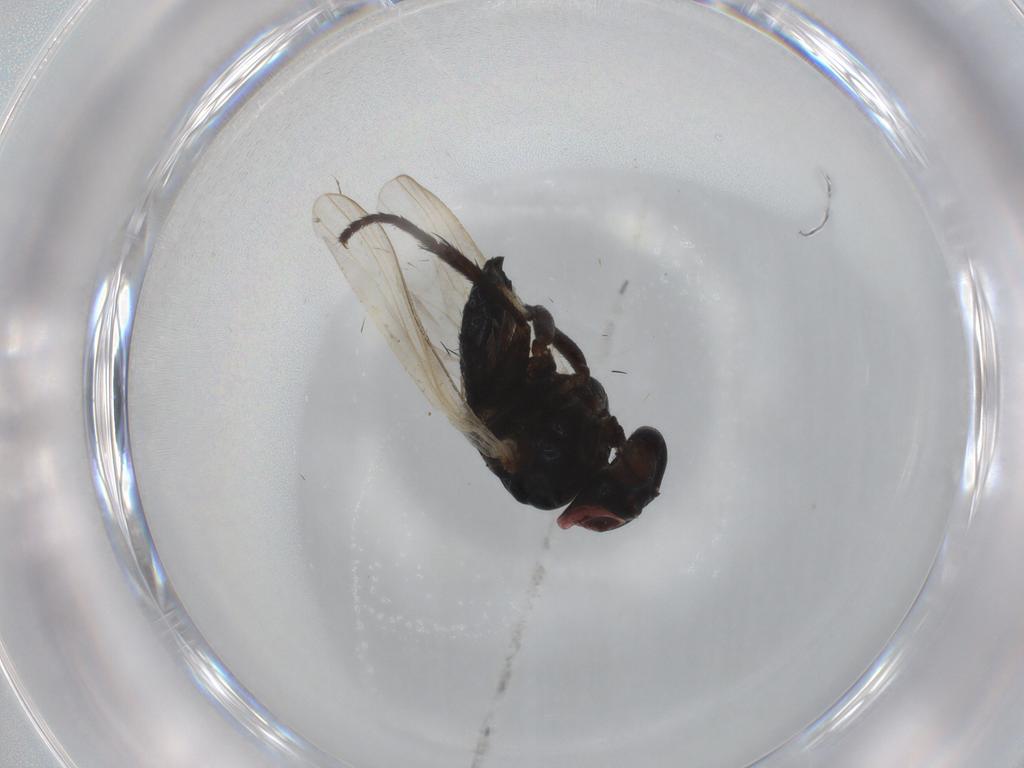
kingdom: Animalia
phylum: Arthropoda
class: Insecta
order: Diptera
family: Lonchaeidae
